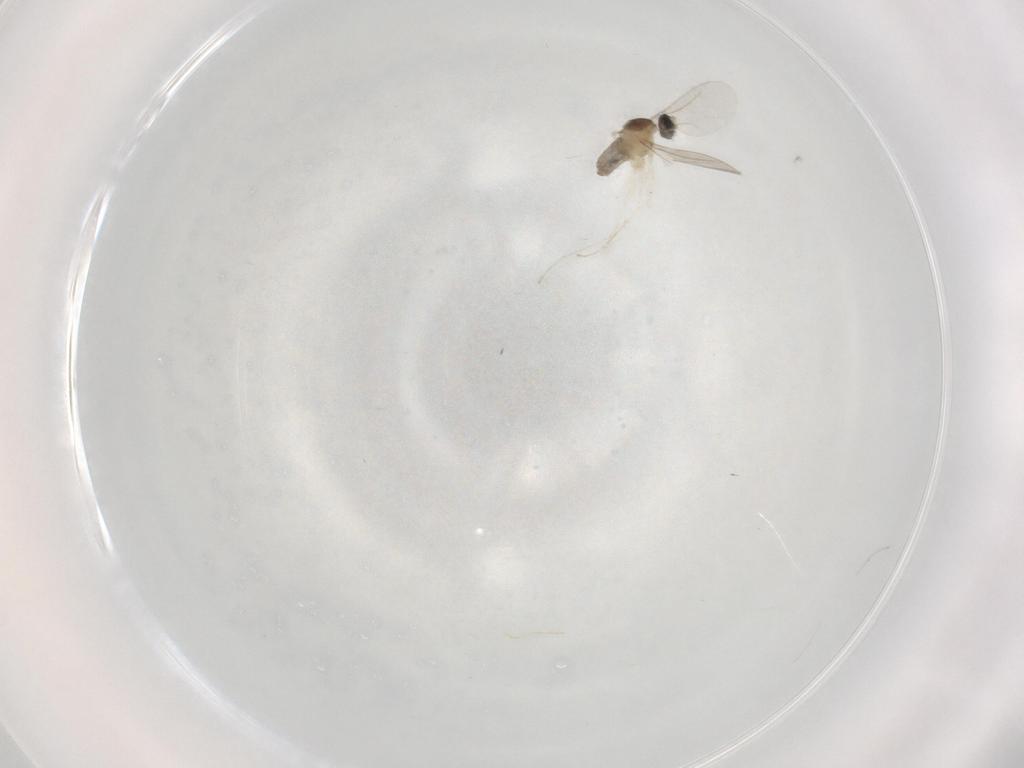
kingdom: Animalia
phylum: Arthropoda
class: Insecta
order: Diptera
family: Cecidomyiidae
